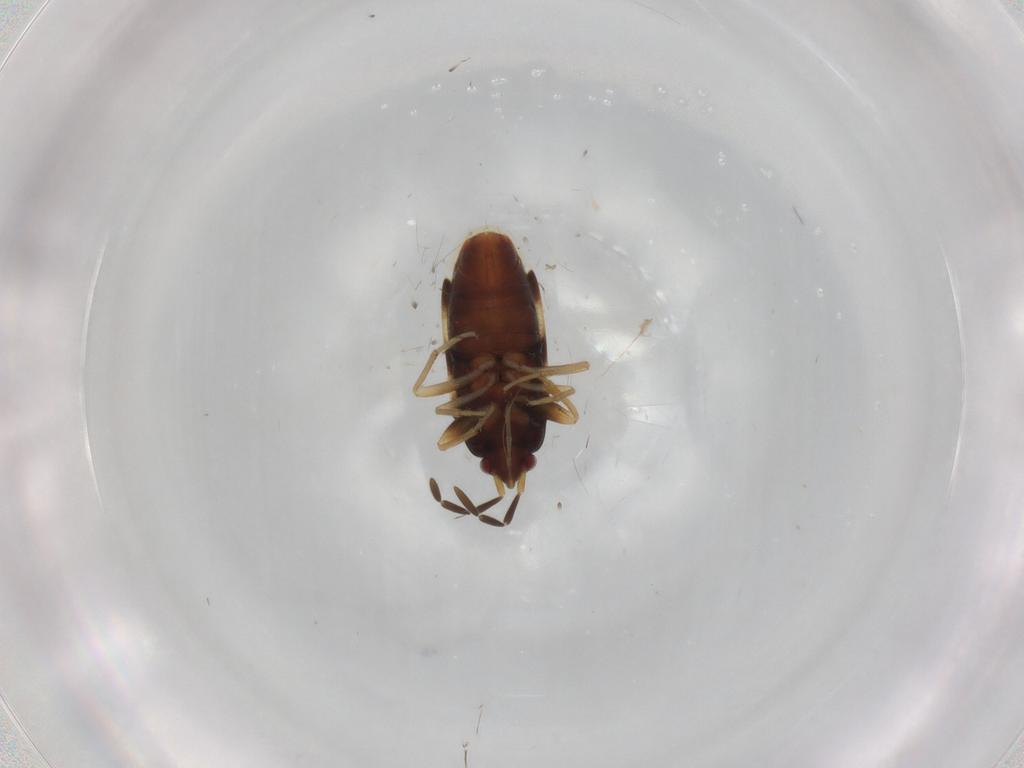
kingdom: Animalia
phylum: Arthropoda
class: Insecta
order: Hemiptera
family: Rhyparochromidae
